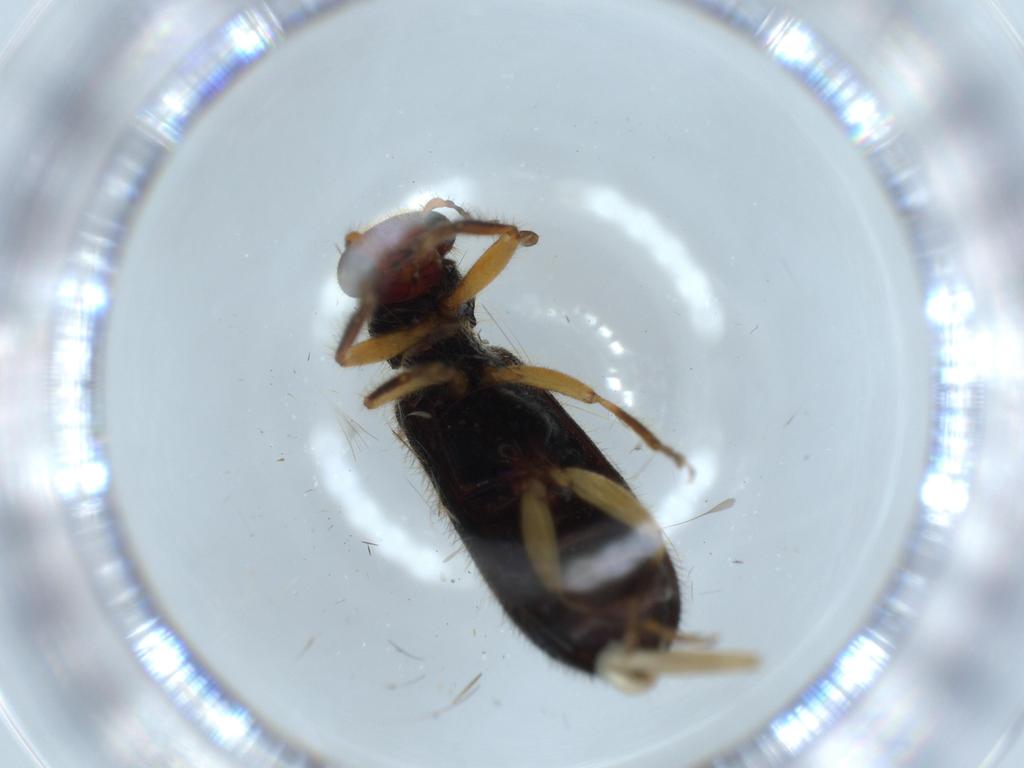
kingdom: Animalia
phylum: Arthropoda
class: Insecta
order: Coleoptera
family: Cleridae
